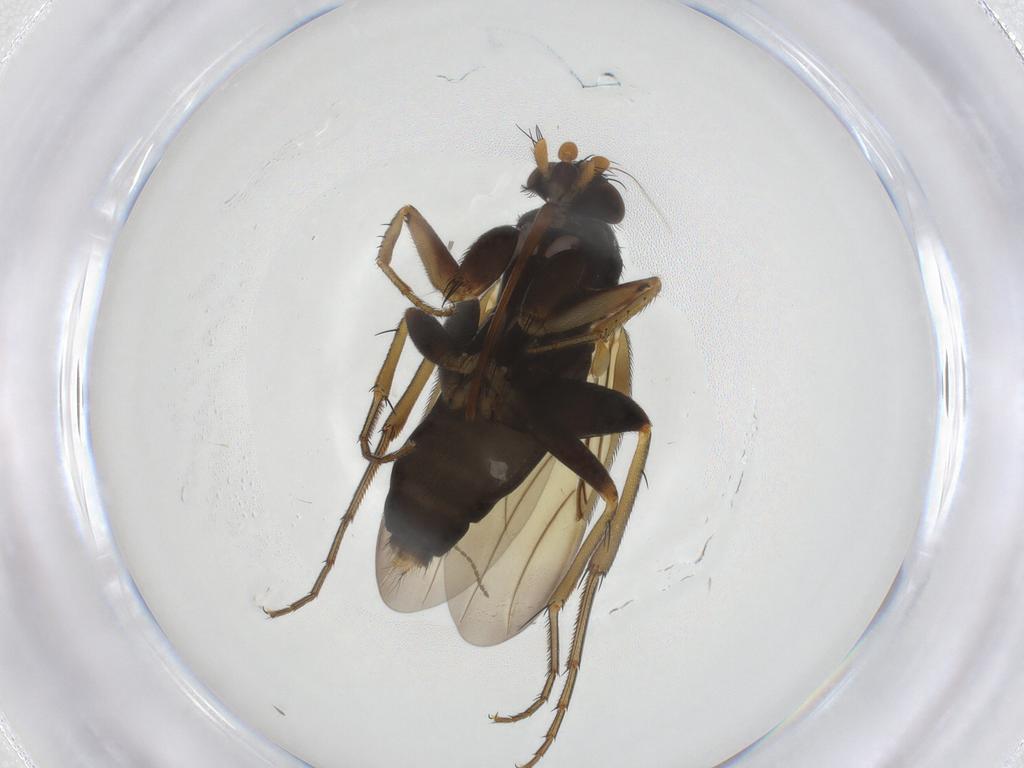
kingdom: Animalia
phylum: Arthropoda
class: Insecta
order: Diptera
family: Phoridae
